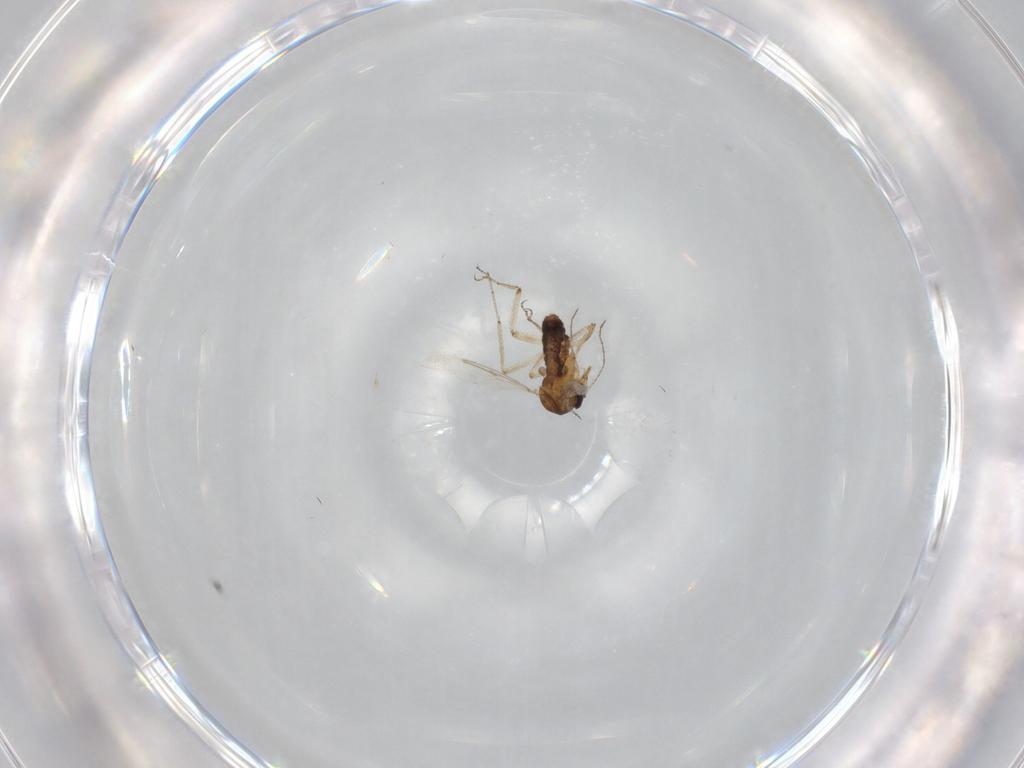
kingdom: Animalia
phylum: Arthropoda
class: Insecta
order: Diptera
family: Ceratopogonidae
